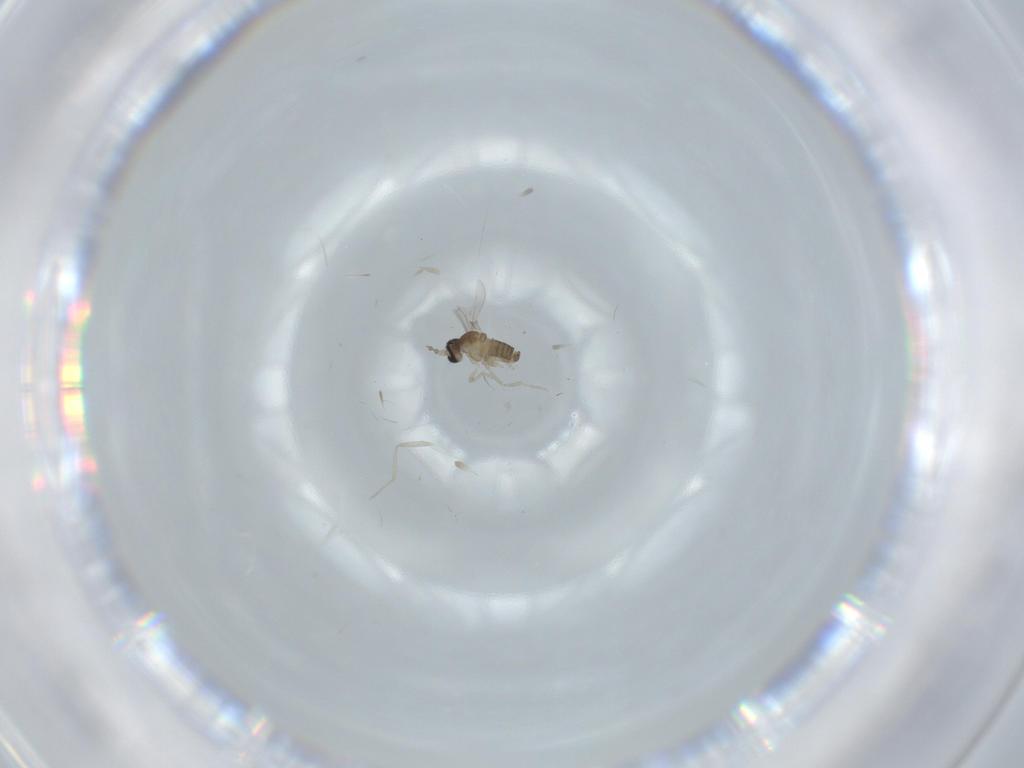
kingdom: Animalia
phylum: Arthropoda
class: Insecta
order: Diptera
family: Cecidomyiidae
